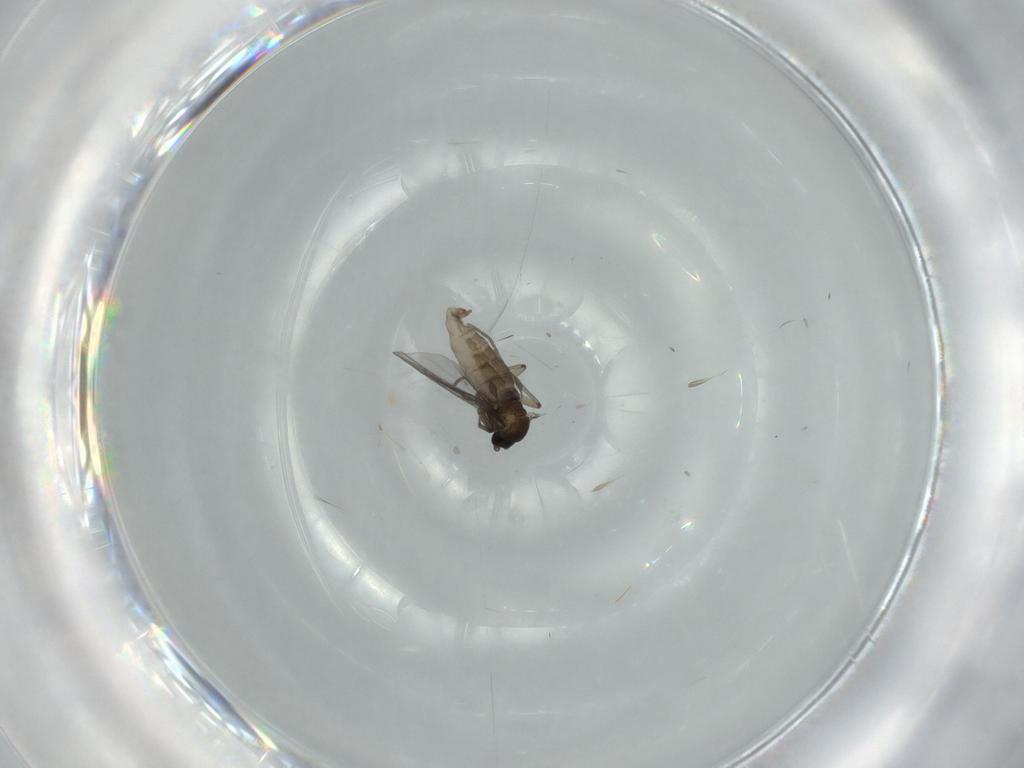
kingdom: Animalia
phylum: Arthropoda
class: Insecta
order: Diptera
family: Sciaridae
